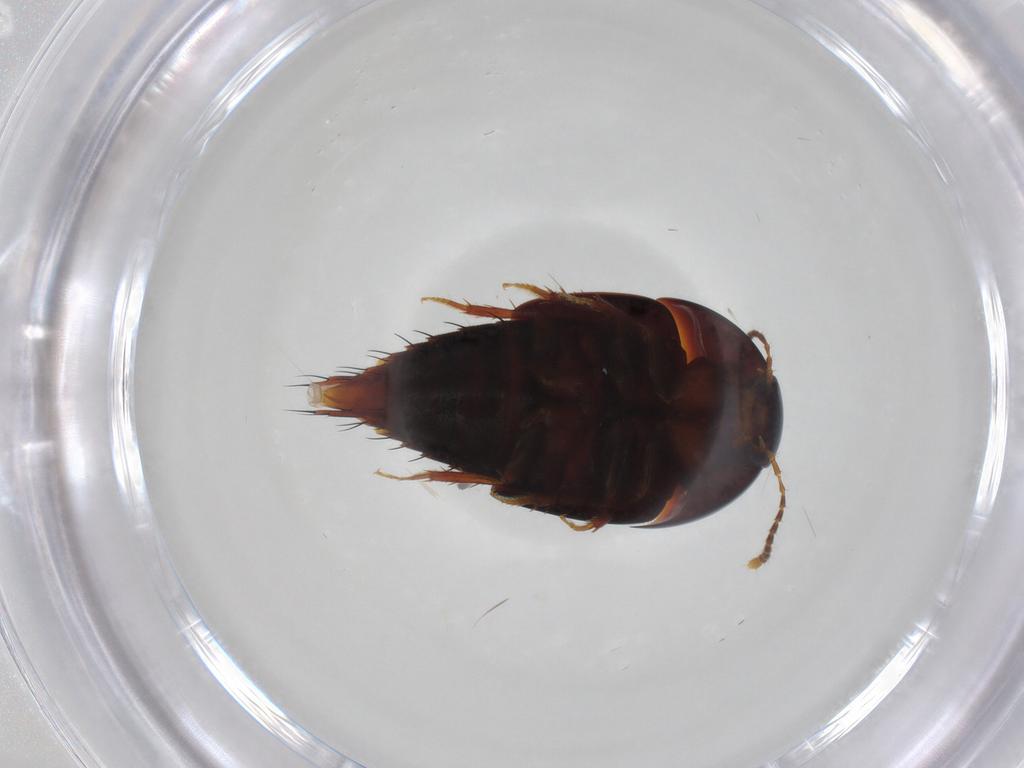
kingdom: Animalia
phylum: Arthropoda
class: Insecta
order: Coleoptera
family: Staphylinidae
